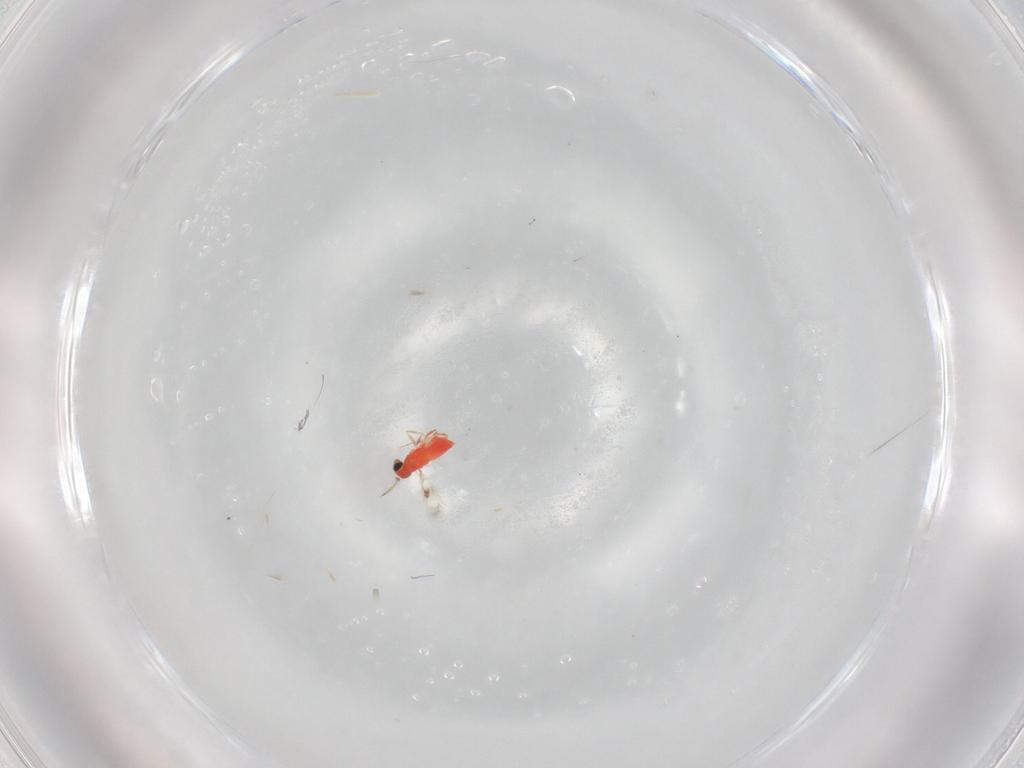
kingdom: Animalia
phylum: Arthropoda
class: Insecta
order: Hymenoptera
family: Trichogrammatidae
